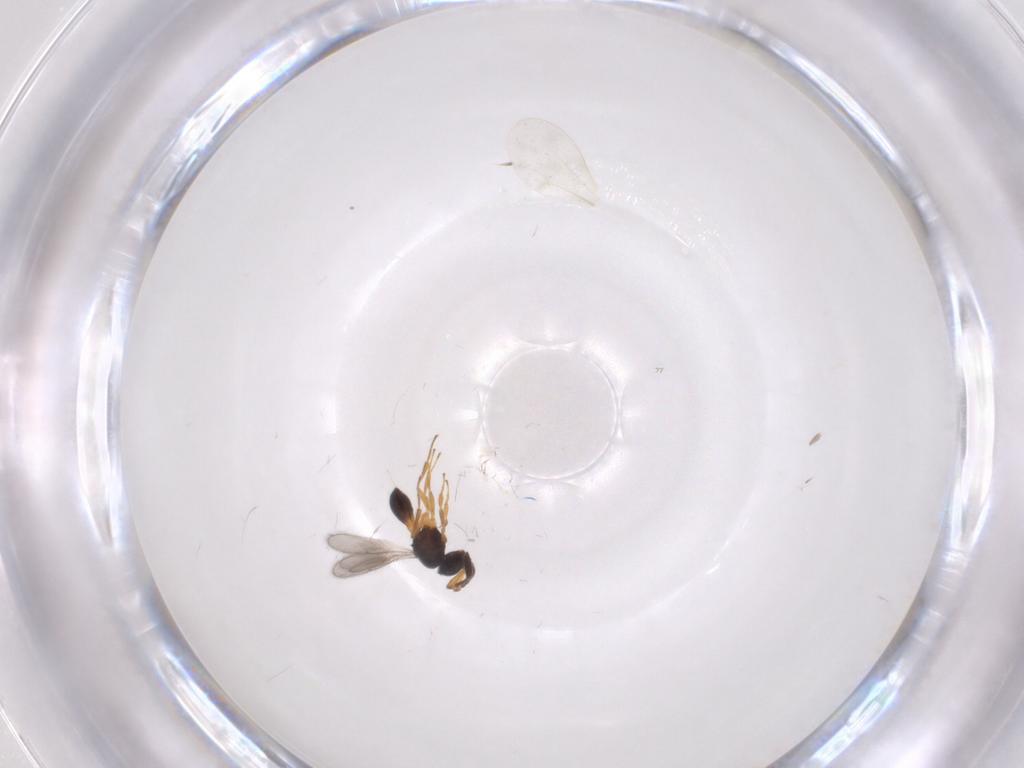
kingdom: Animalia
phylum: Arthropoda
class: Insecta
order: Hymenoptera
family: Scelionidae
